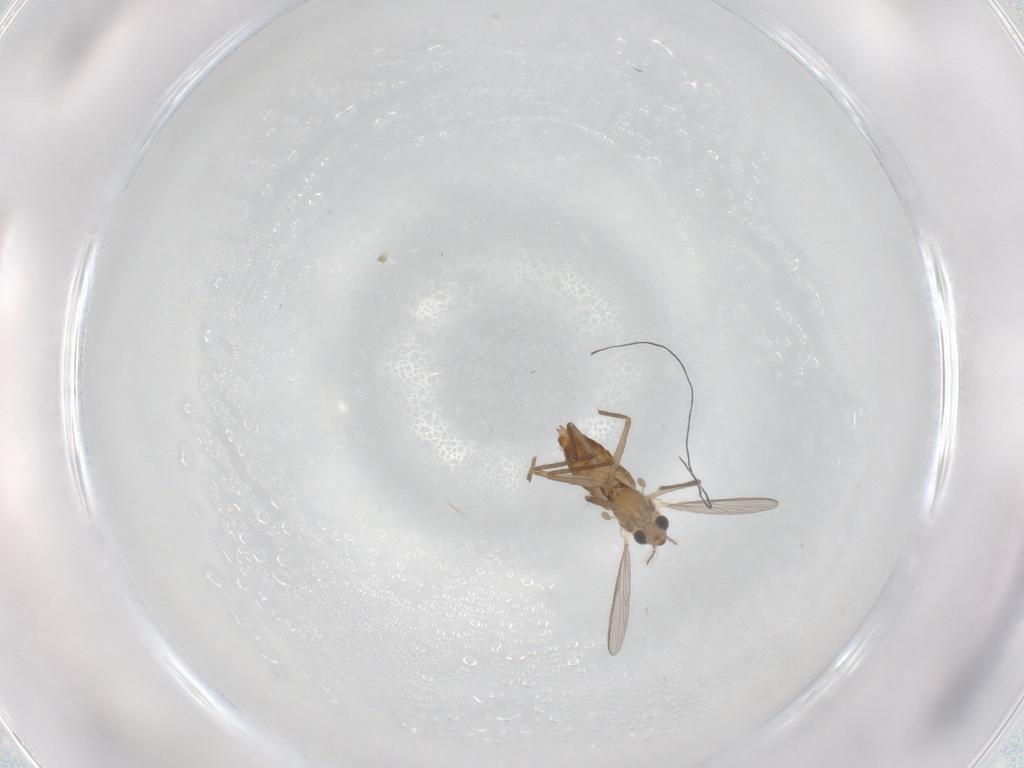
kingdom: Animalia
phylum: Arthropoda
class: Insecta
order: Diptera
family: Chironomidae
